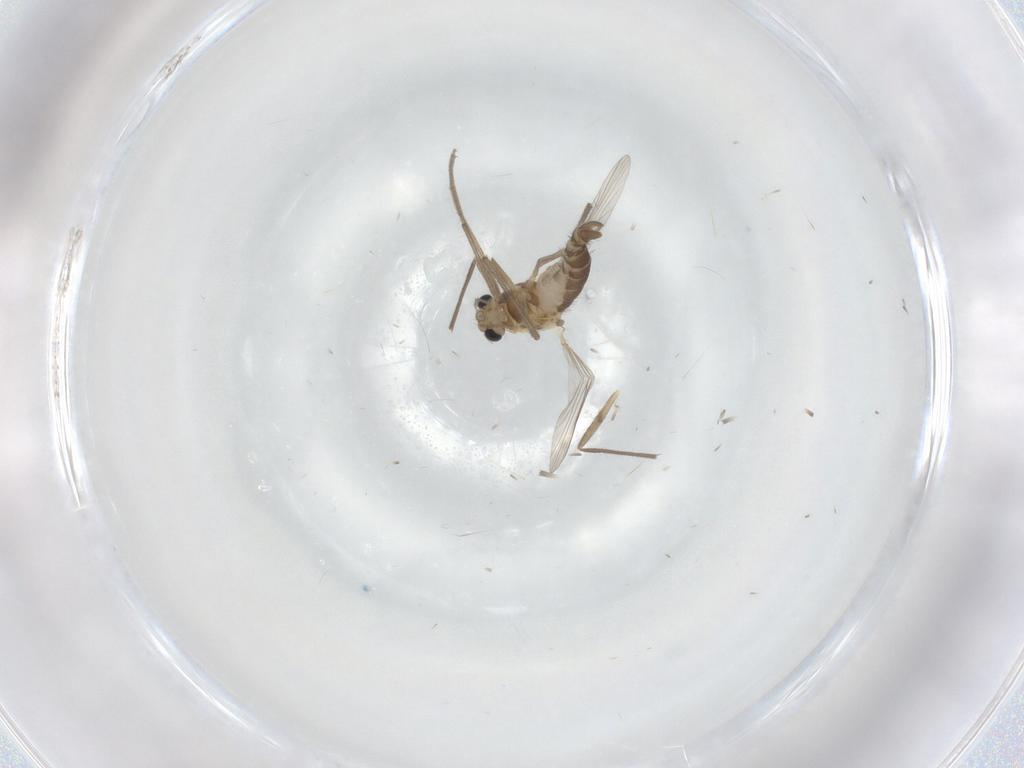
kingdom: Animalia
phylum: Arthropoda
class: Insecta
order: Diptera
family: Chironomidae
